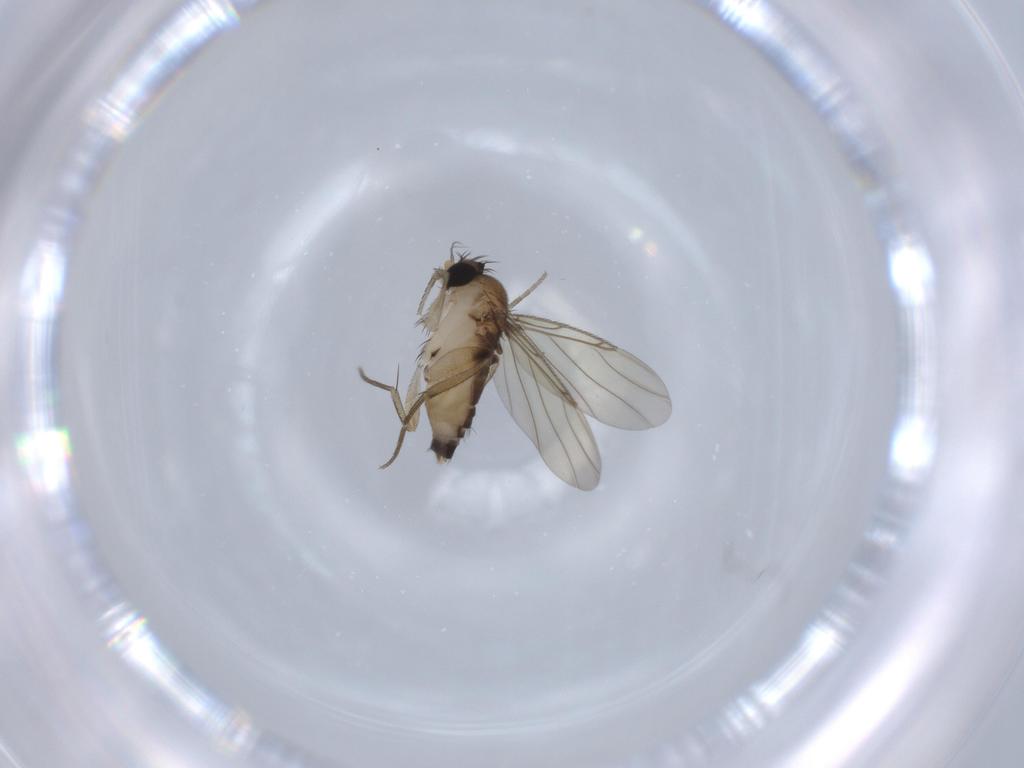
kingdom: Animalia
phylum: Arthropoda
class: Insecta
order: Diptera
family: Phoridae
